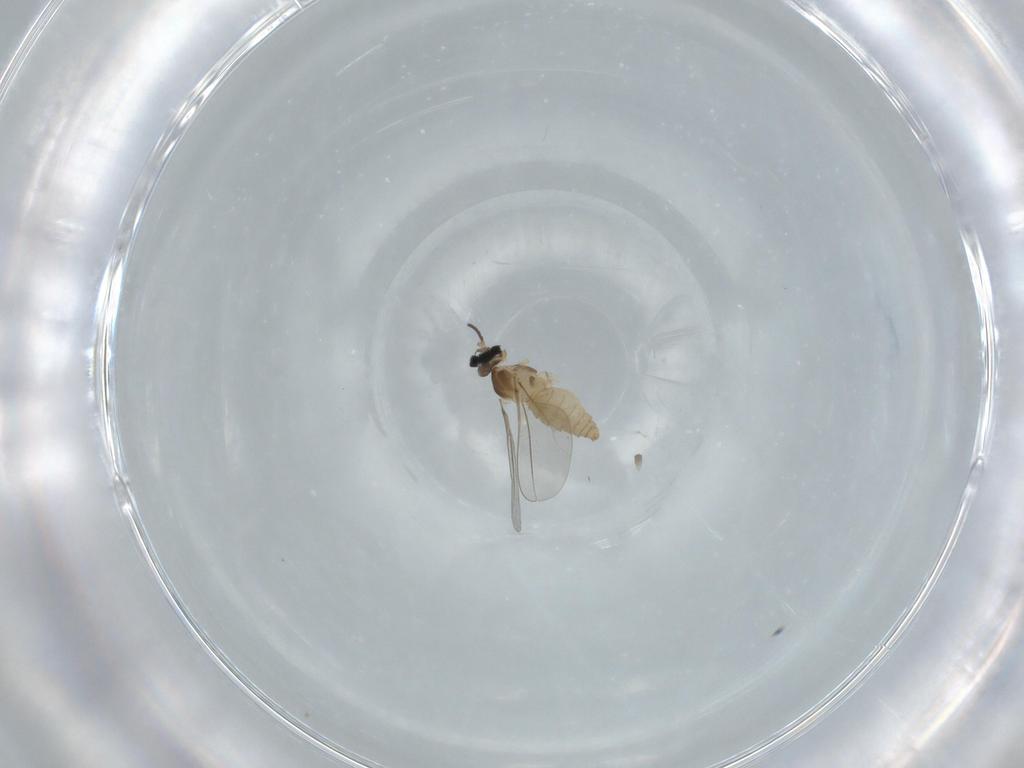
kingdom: Animalia
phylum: Arthropoda
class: Insecta
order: Diptera
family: Cecidomyiidae
